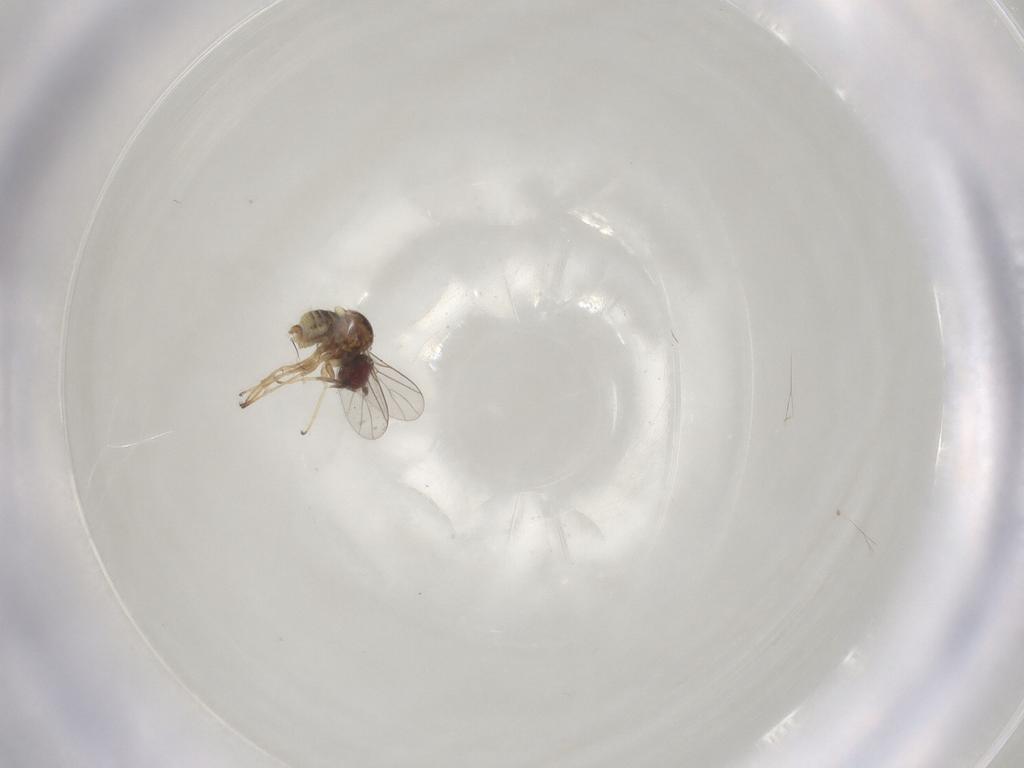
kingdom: Animalia
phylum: Arthropoda
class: Insecta
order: Diptera
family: Bombyliidae
